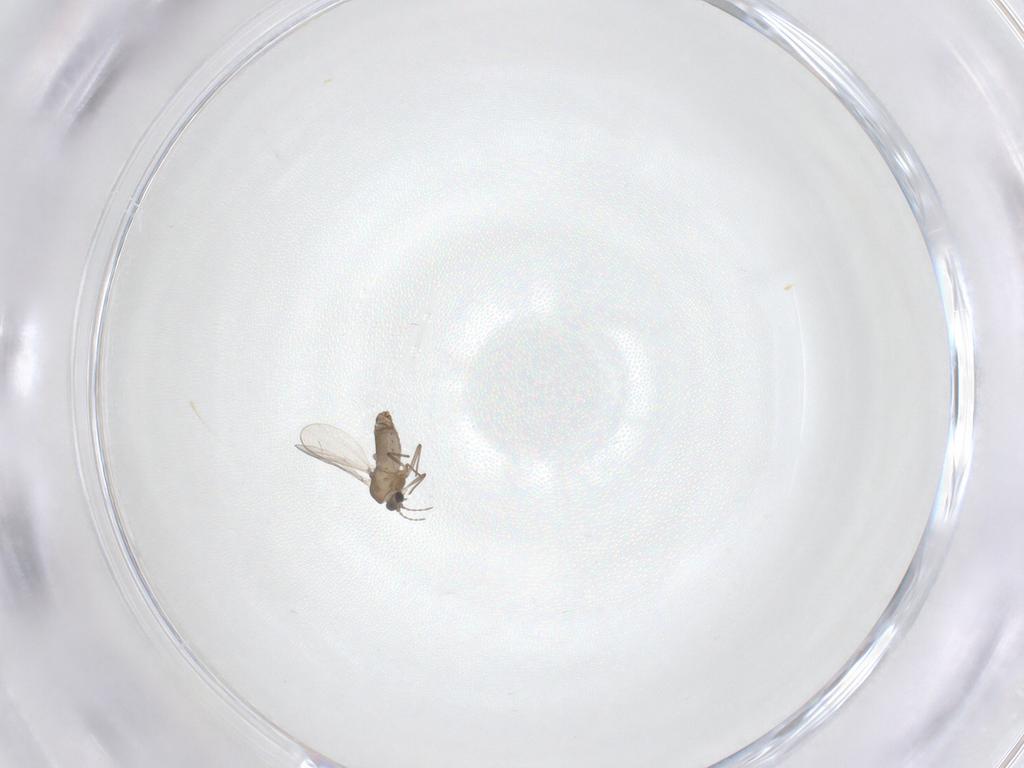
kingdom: Animalia
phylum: Arthropoda
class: Insecta
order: Diptera
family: Chironomidae
